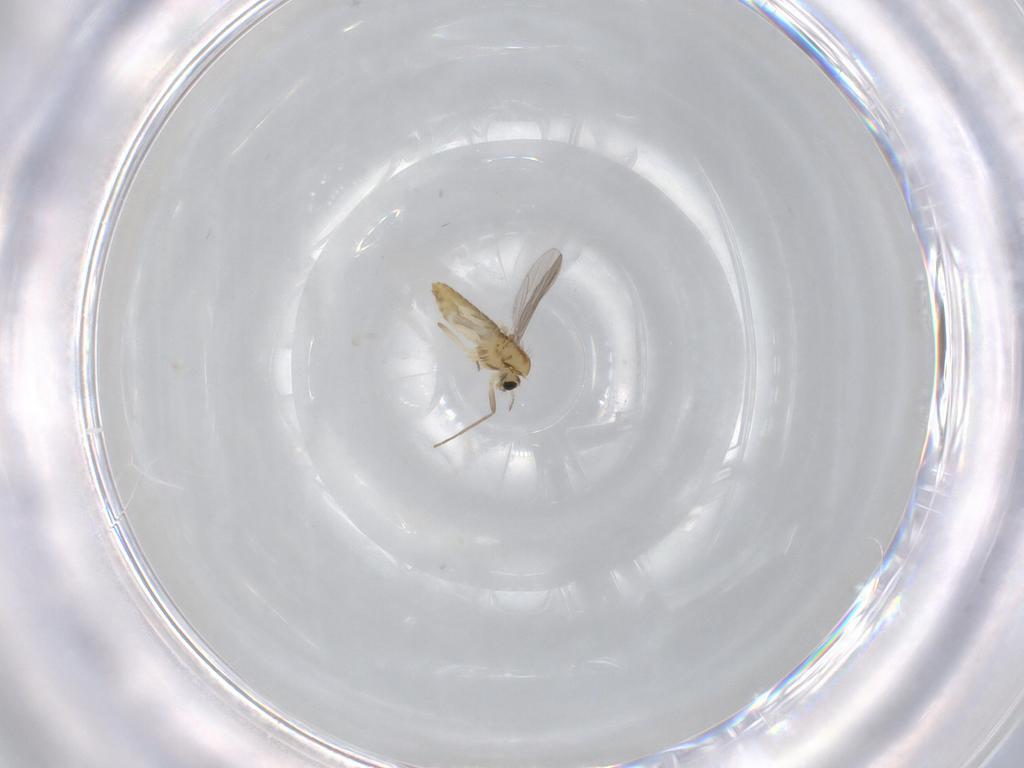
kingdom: Animalia
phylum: Arthropoda
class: Insecta
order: Diptera
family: Chironomidae
